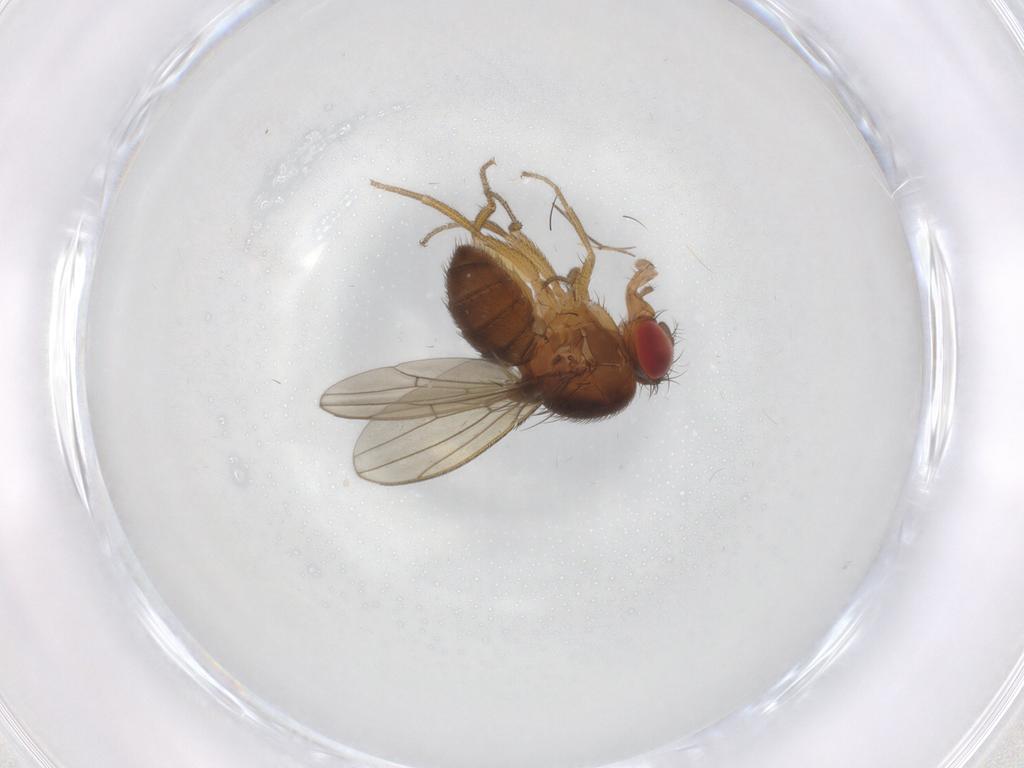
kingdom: Animalia
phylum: Arthropoda
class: Insecta
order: Diptera
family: Drosophilidae
